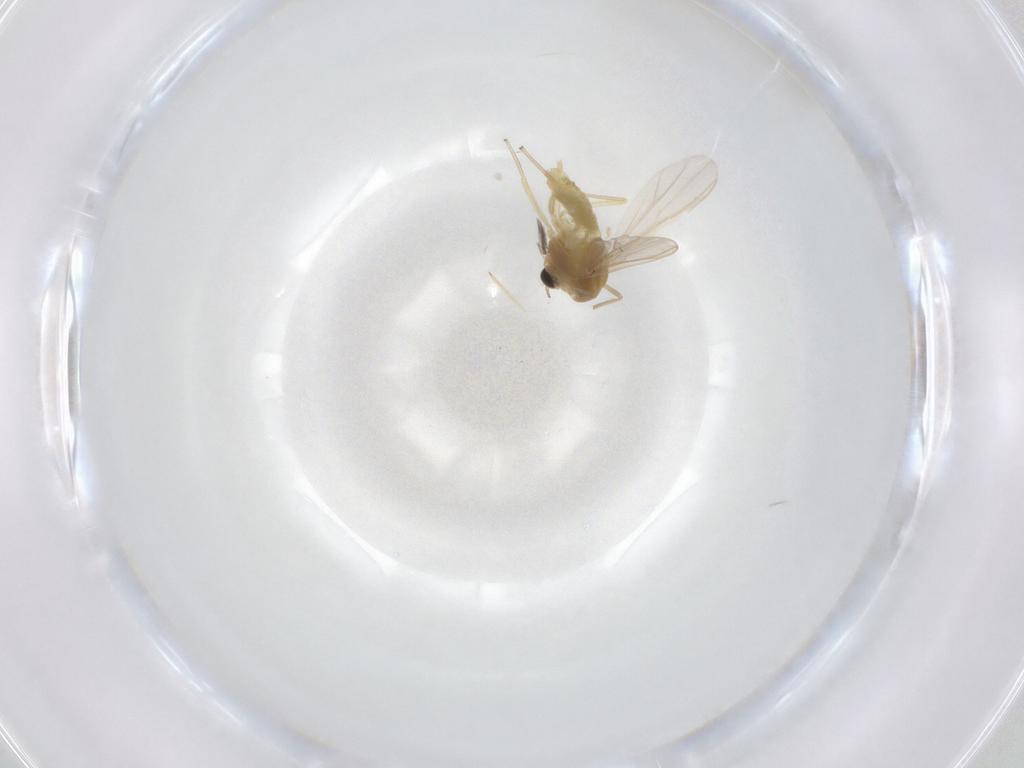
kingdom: Animalia
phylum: Arthropoda
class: Insecta
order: Diptera
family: Chironomidae
